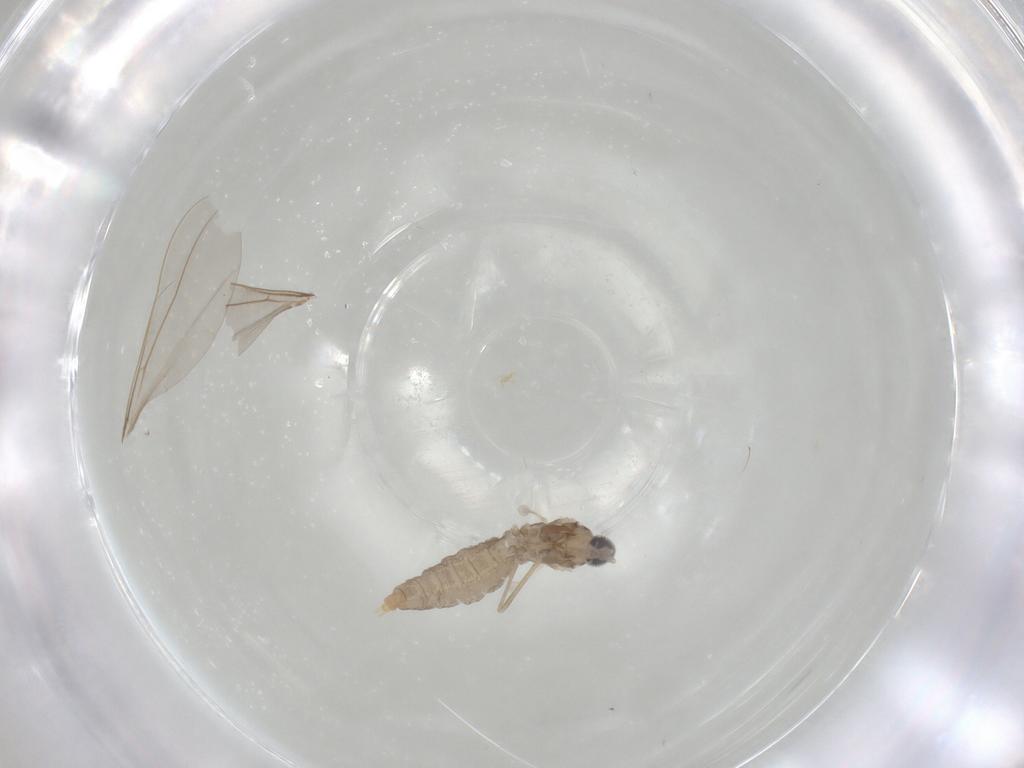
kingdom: Animalia
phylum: Arthropoda
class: Insecta
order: Diptera
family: Cecidomyiidae
